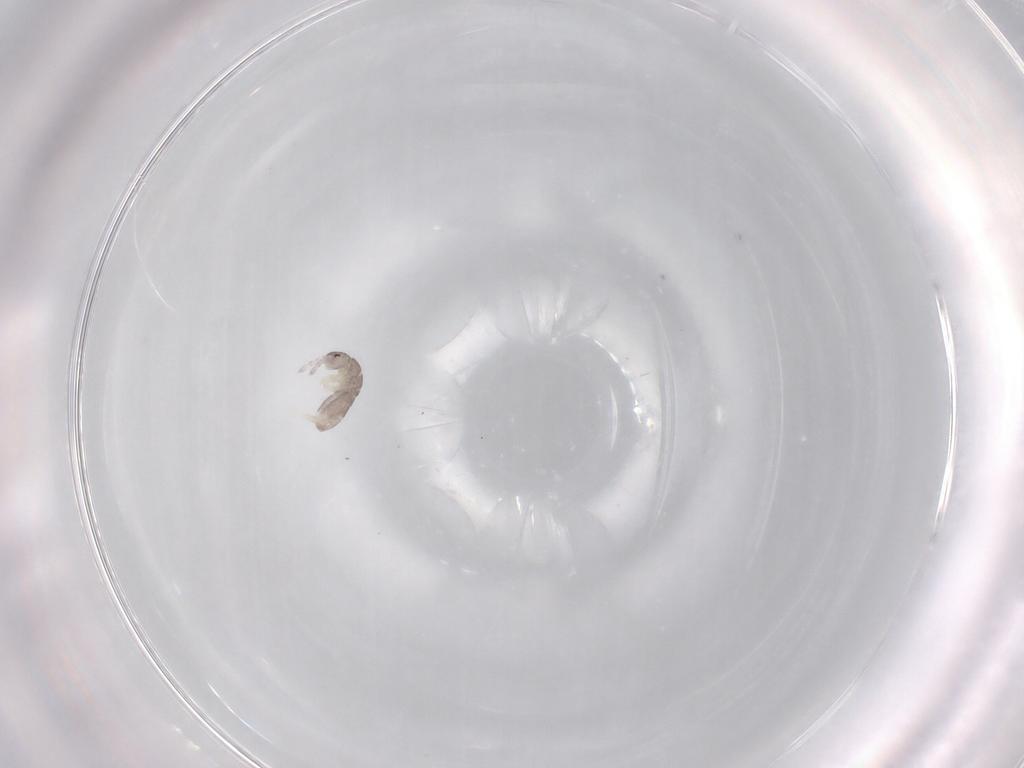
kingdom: Animalia
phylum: Arthropoda
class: Collembola
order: Entomobryomorpha
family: Isotomidae
